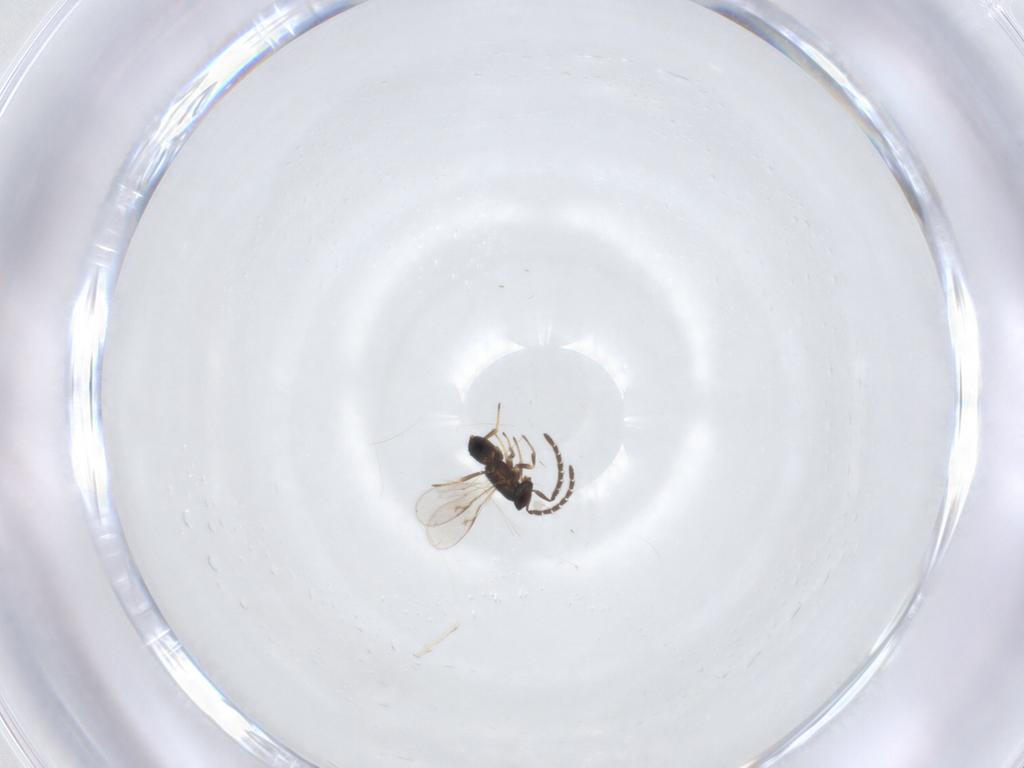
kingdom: Animalia
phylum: Arthropoda
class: Insecta
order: Hymenoptera
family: Encyrtidae
